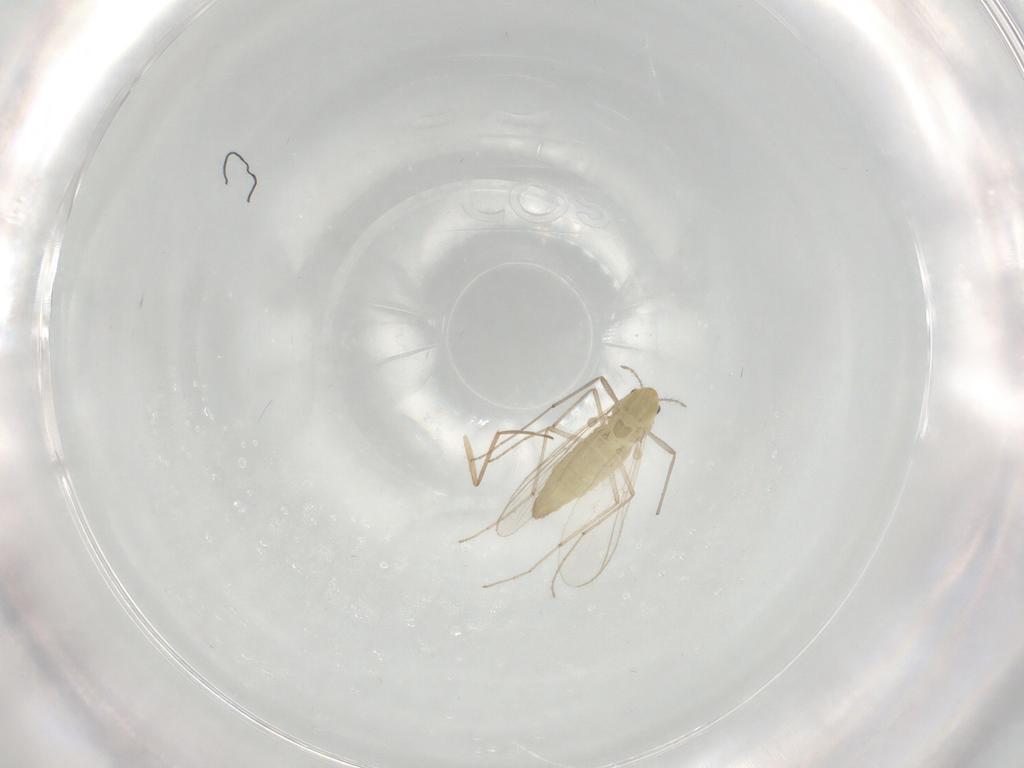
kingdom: Animalia
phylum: Arthropoda
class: Insecta
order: Diptera
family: Chironomidae
